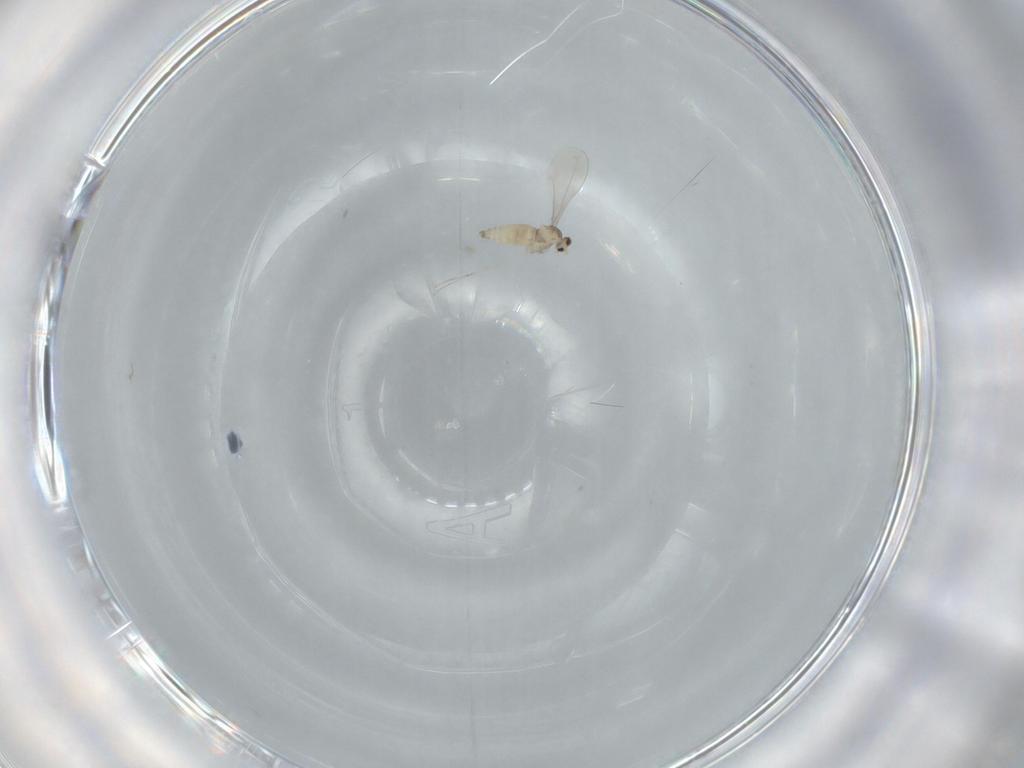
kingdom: Animalia
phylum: Arthropoda
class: Insecta
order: Diptera
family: Cecidomyiidae
